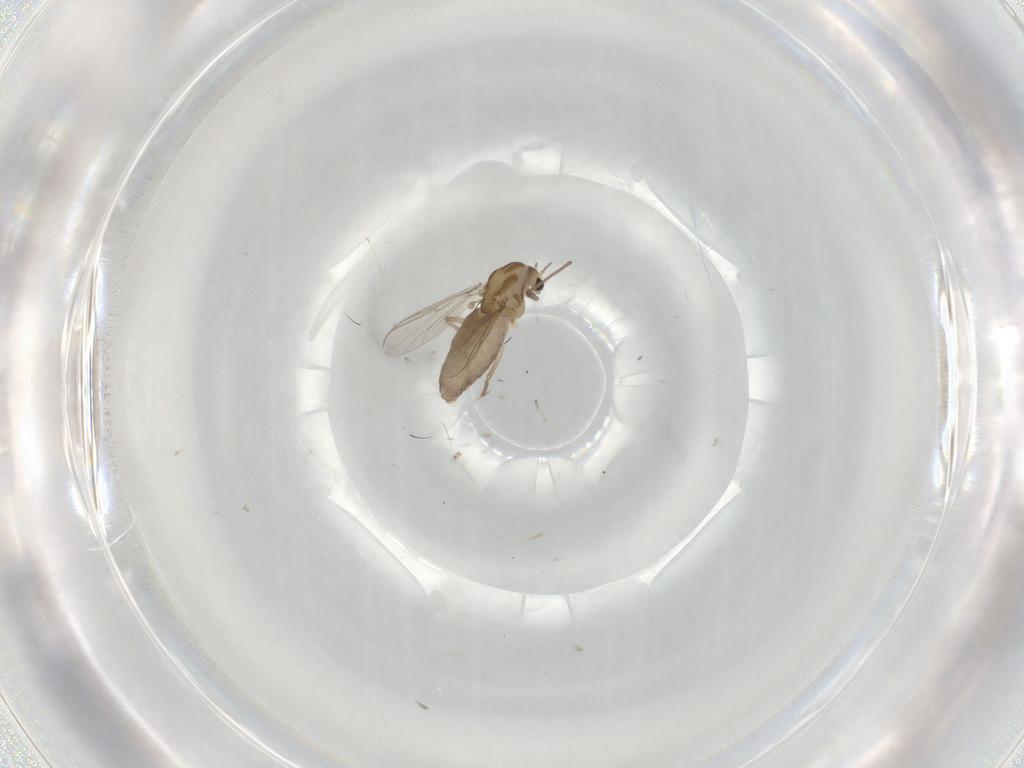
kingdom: Animalia
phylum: Arthropoda
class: Insecta
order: Diptera
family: Chironomidae
